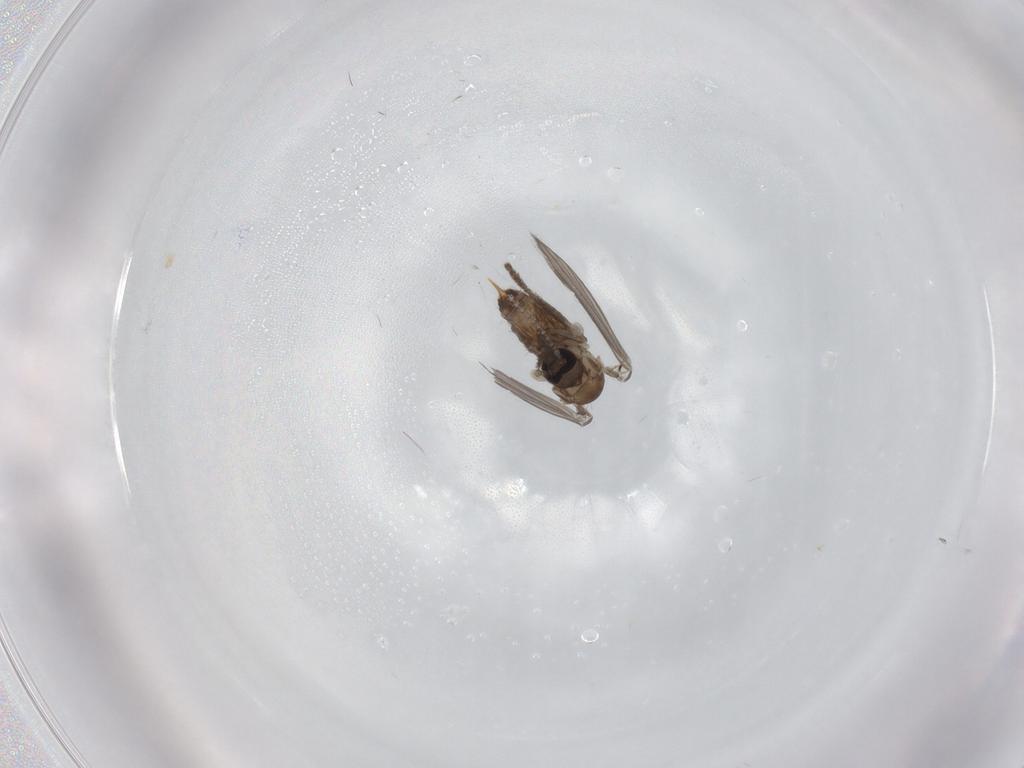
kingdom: Animalia
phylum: Arthropoda
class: Insecta
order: Diptera
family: Psychodidae
